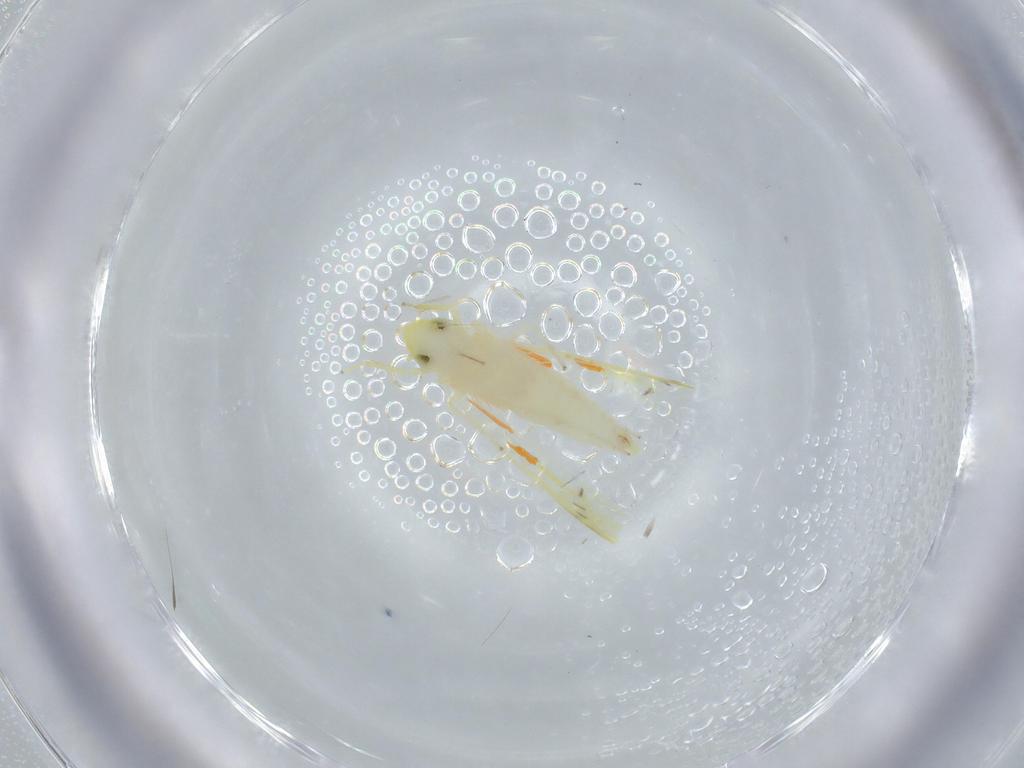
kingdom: Animalia
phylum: Arthropoda
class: Insecta
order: Hemiptera
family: Cicadellidae
